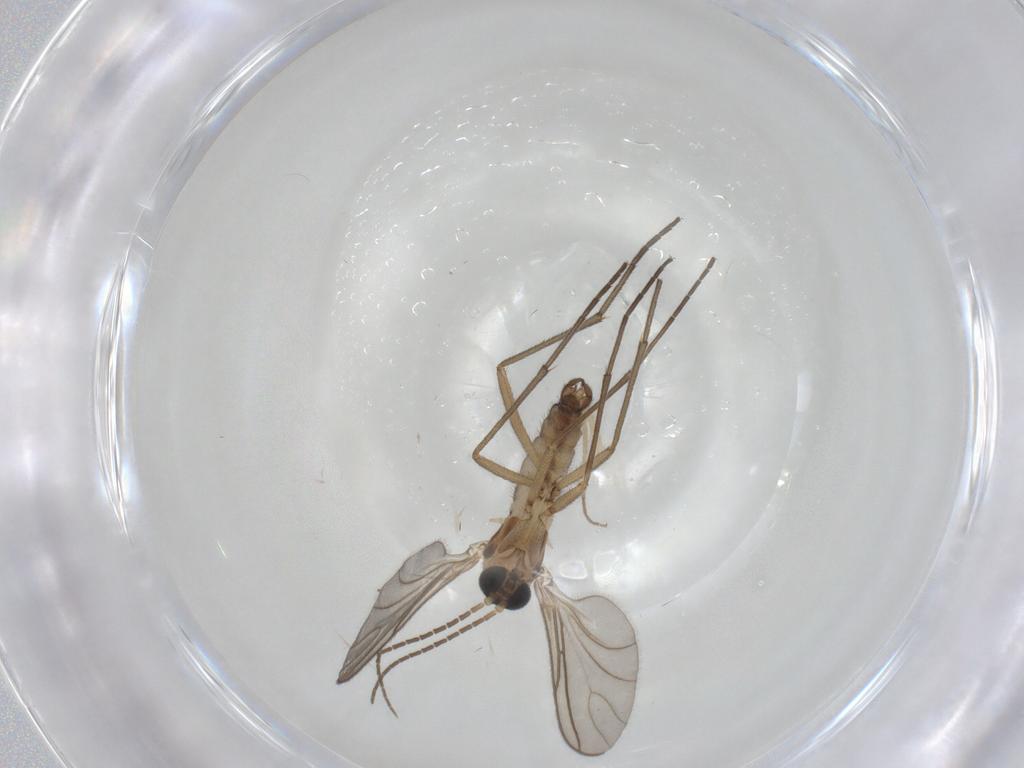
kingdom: Animalia
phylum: Arthropoda
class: Insecta
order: Diptera
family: Sciaridae
